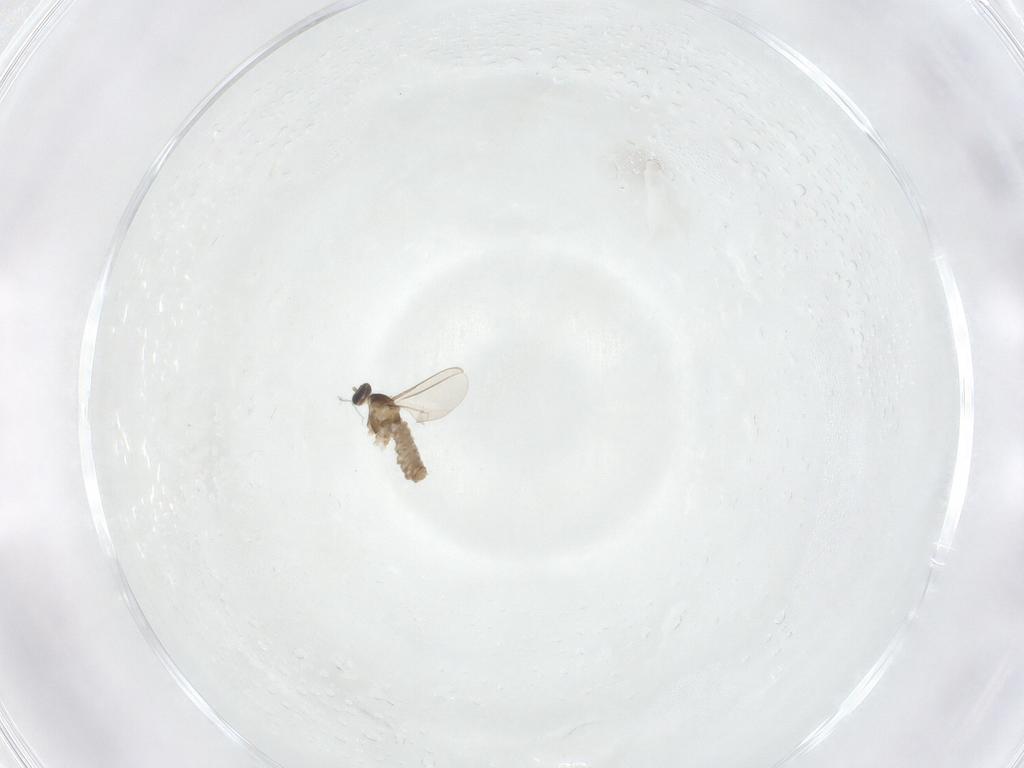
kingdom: Animalia
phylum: Arthropoda
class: Insecta
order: Diptera
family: Cecidomyiidae
